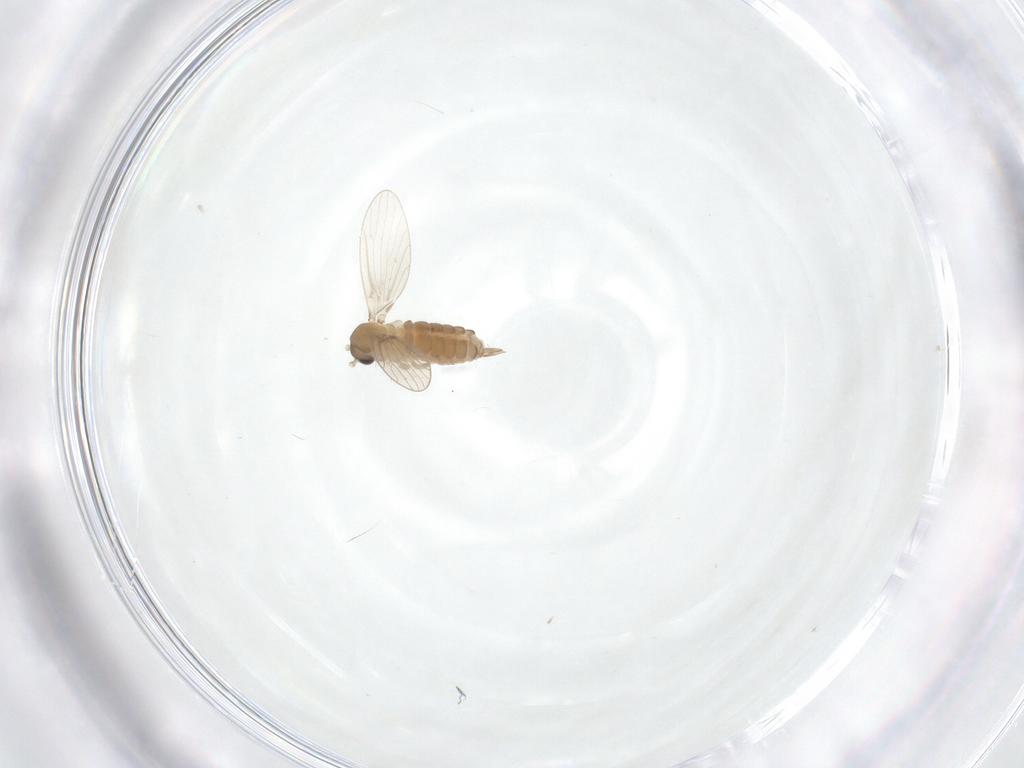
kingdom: Animalia
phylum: Arthropoda
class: Insecta
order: Diptera
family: Psychodidae
